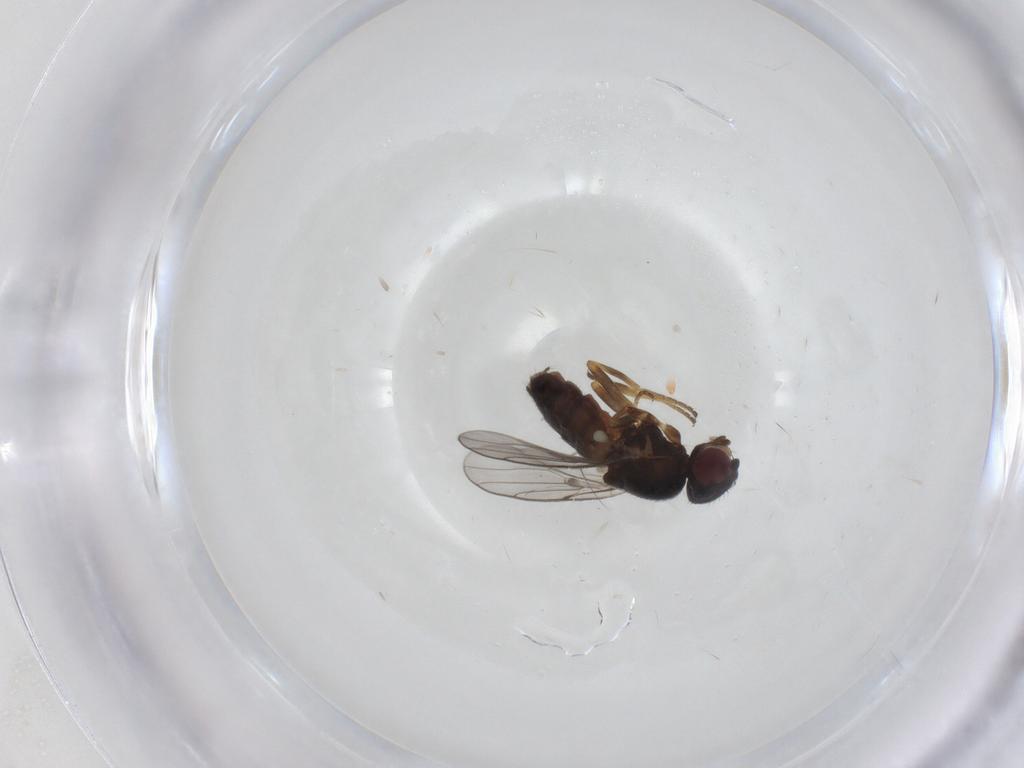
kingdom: Animalia
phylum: Arthropoda
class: Insecta
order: Diptera
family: Chloropidae
